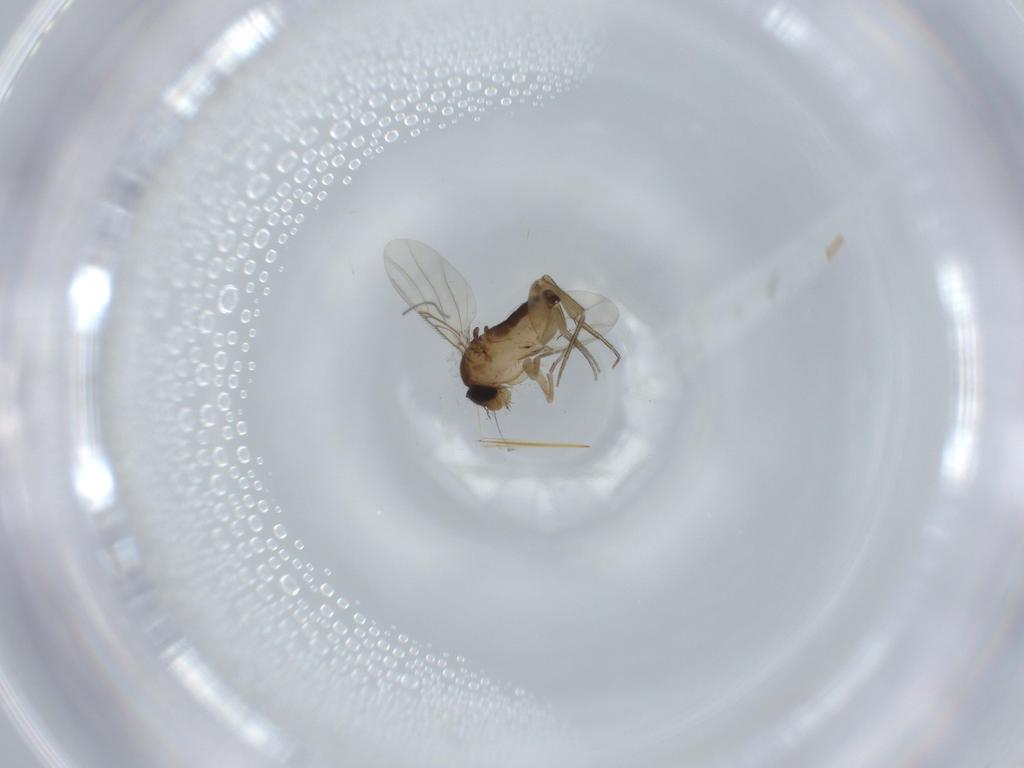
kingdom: Animalia
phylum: Arthropoda
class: Insecta
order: Diptera
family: Phoridae
